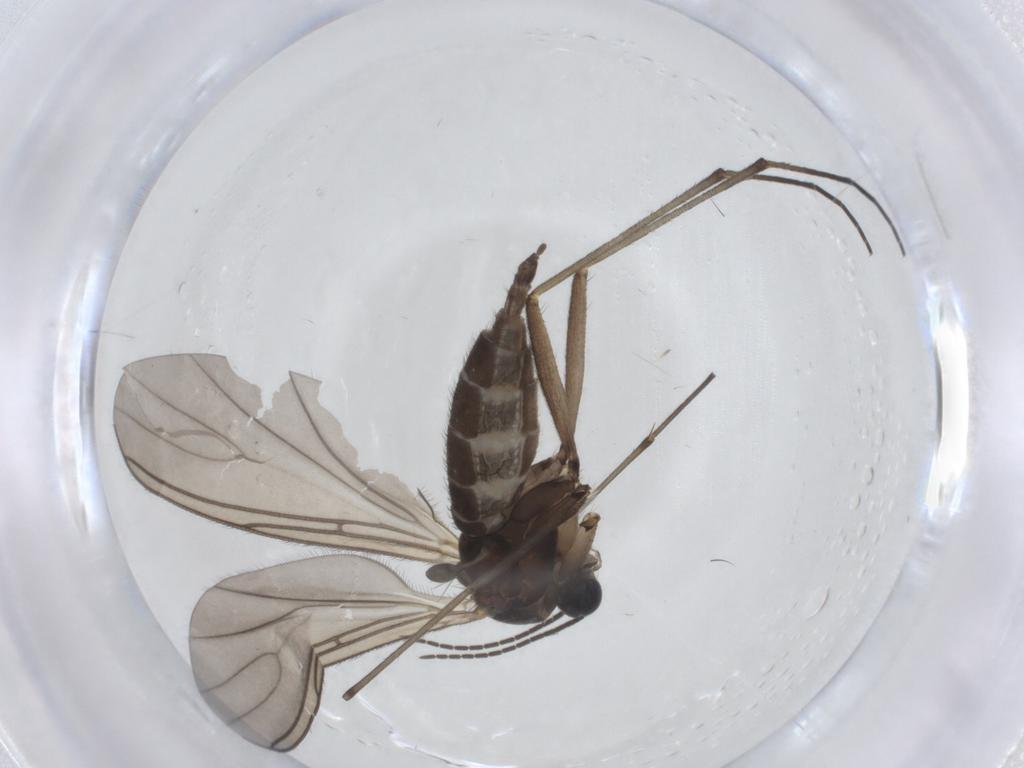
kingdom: Animalia
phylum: Arthropoda
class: Insecta
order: Diptera
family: Sciaridae
